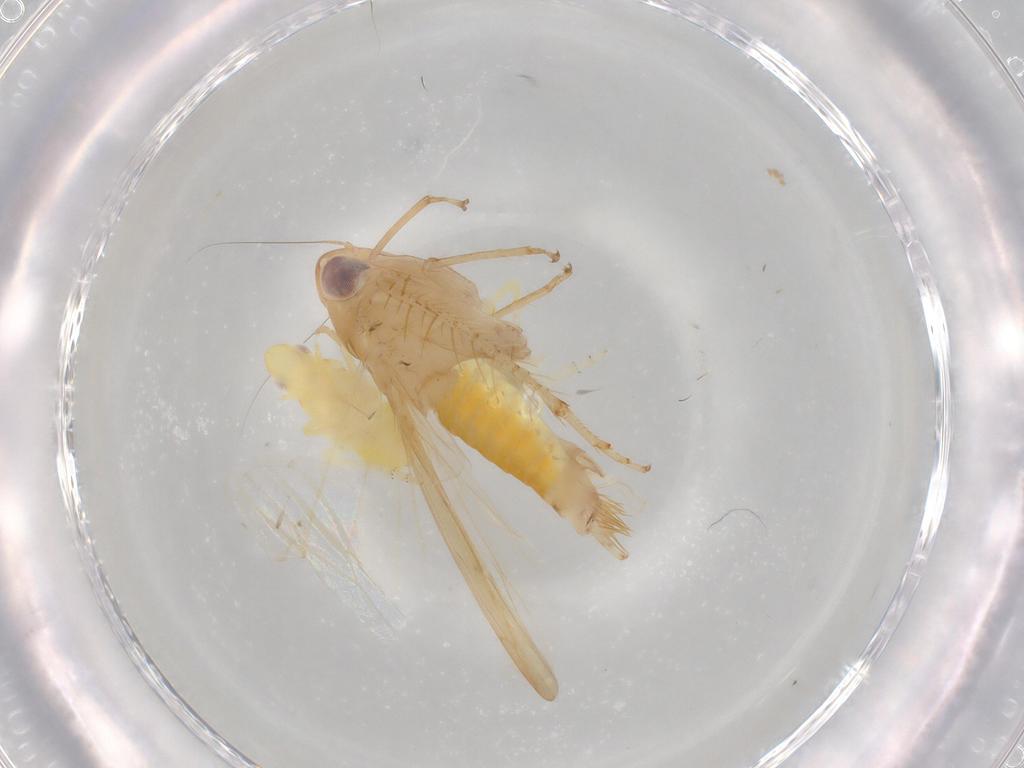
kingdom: Animalia
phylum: Arthropoda
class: Insecta
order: Hemiptera
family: Cicadellidae
